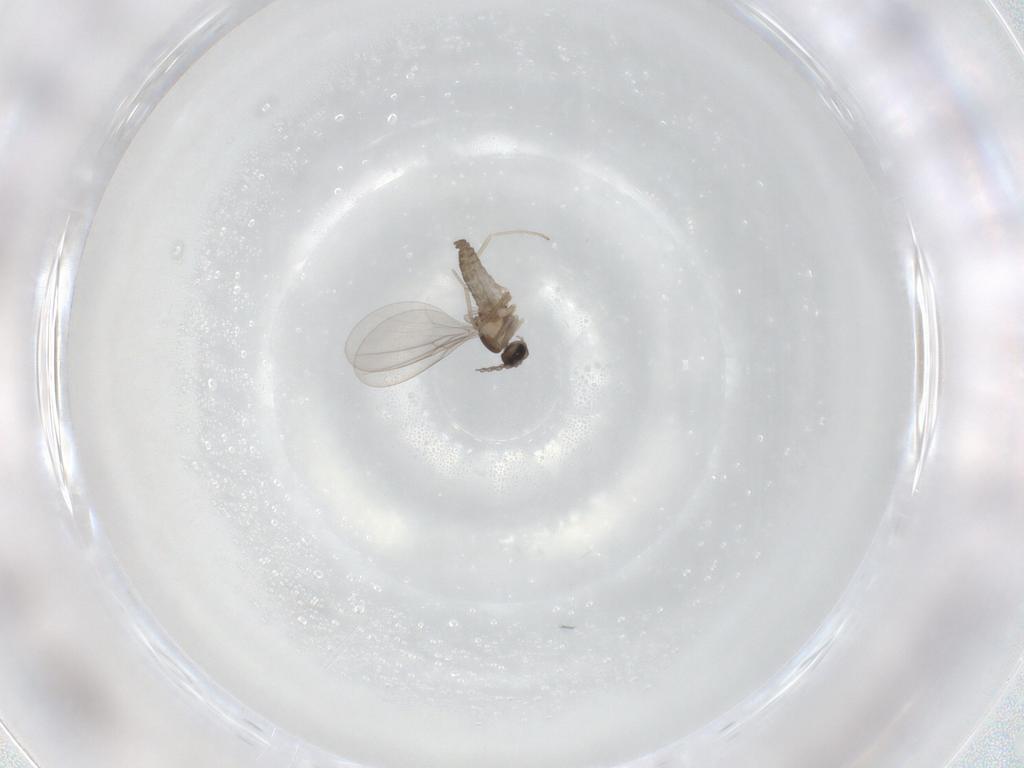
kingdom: Animalia
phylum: Arthropoda
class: Insecta
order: Diptera
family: Cecidomyiidae
